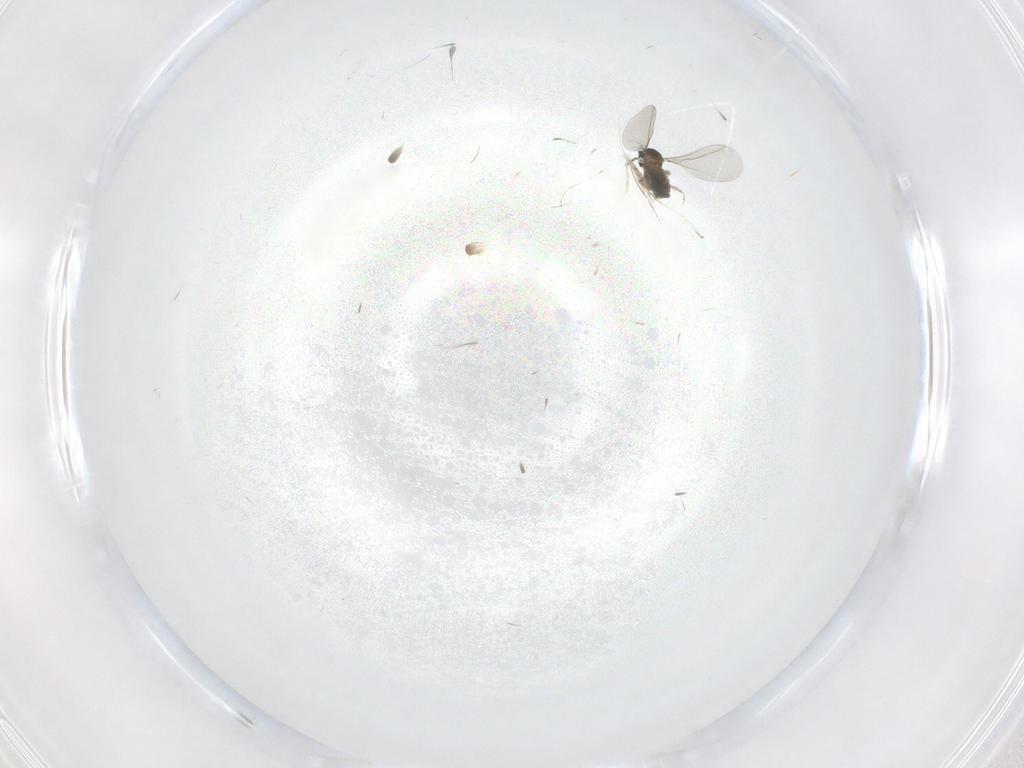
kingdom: Animalia
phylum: Arthropoda
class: Insecta
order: Diptera
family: Cecidomyiidae
